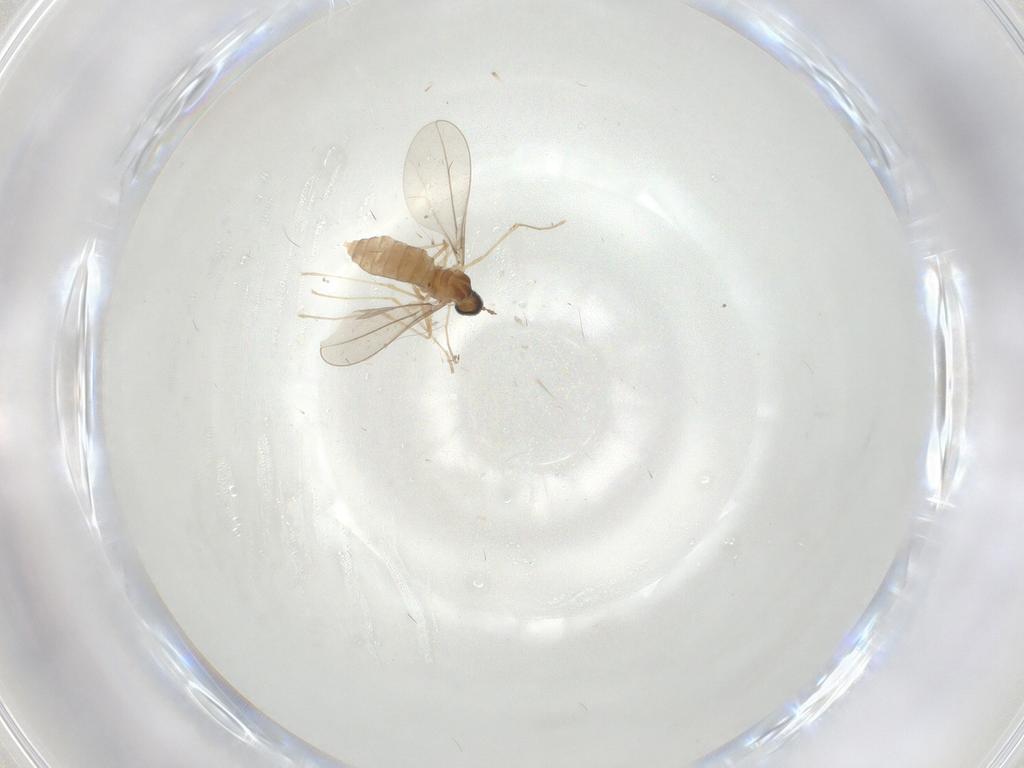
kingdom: Animalia
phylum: Arthropoda
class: Insecta
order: Diptera
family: Cecidomyiidae
